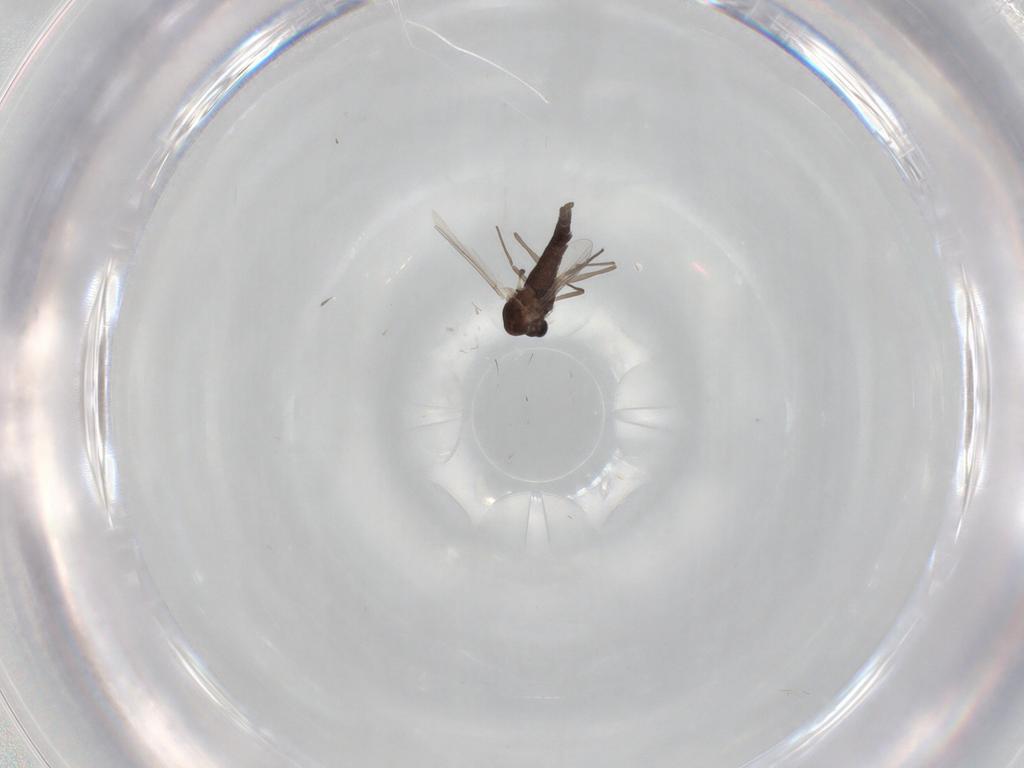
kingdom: Animalia
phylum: Arthropoda
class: Insecta
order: Diptera
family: Chironomidae
